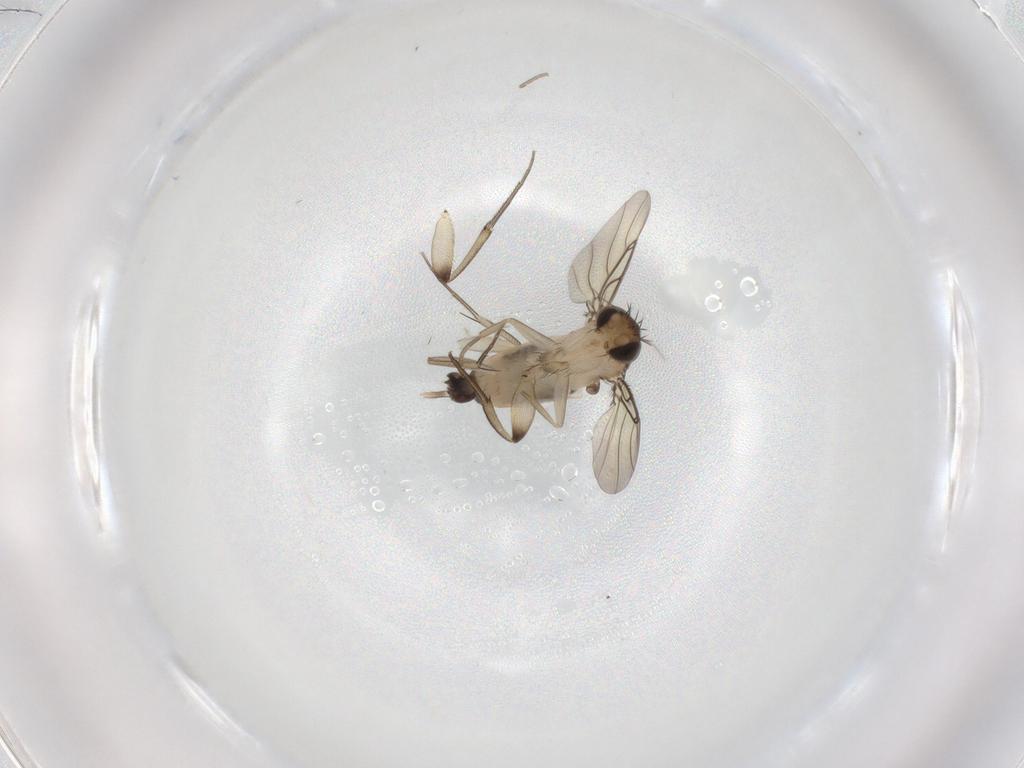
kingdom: Animalia
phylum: Arthropoda
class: Insecta
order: Diptera
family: Phoridae
